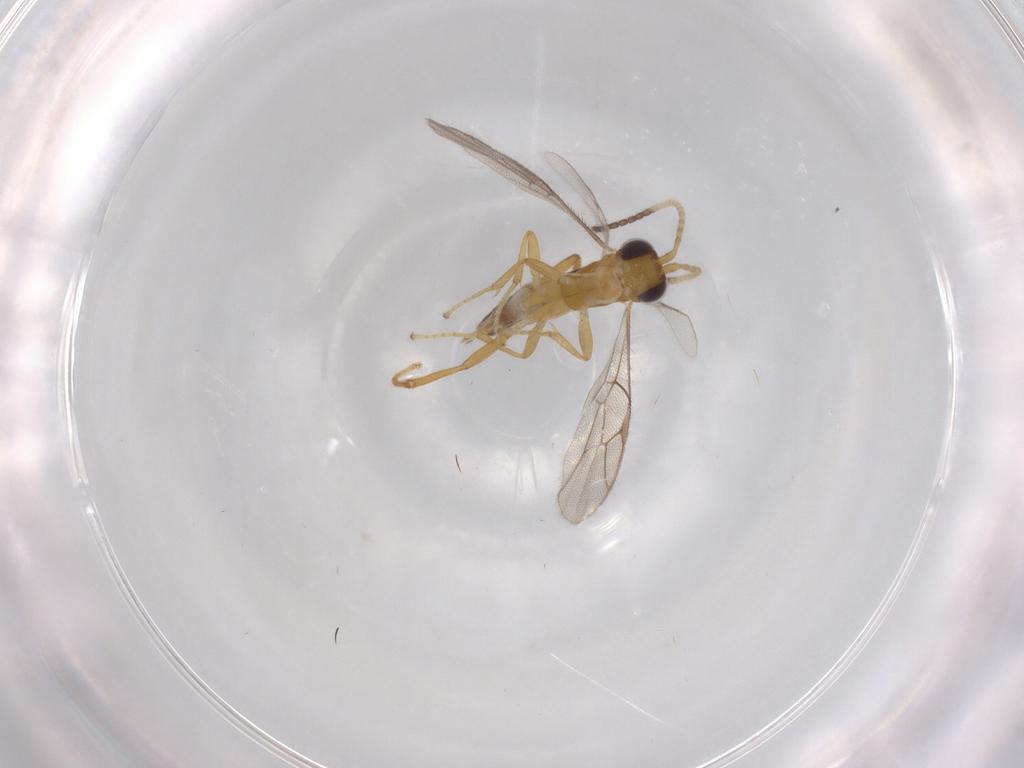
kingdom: Animalia
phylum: Arthropoda
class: Insecta
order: Hymenoptera
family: Ichneumonidae
